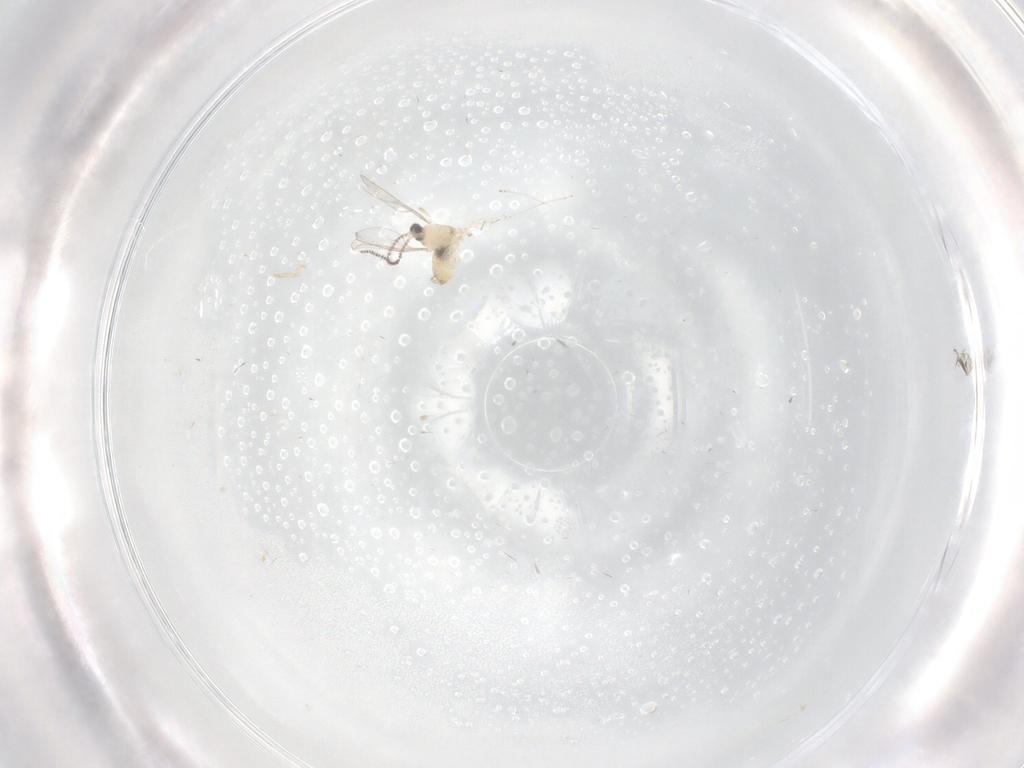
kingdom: Animalia
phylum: Arthropoda
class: Insecta
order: Diptera
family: Cecidomyiidae
